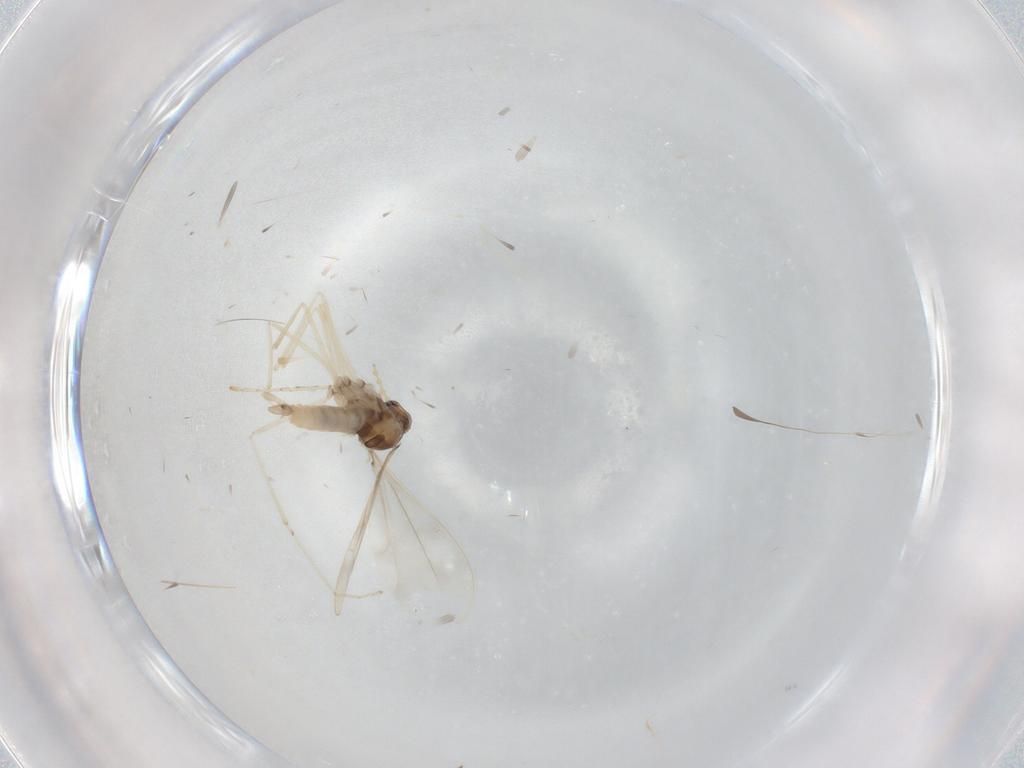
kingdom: Animalia
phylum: Arthropoda
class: Insecta
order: Diptera
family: Cecidomyiidae
